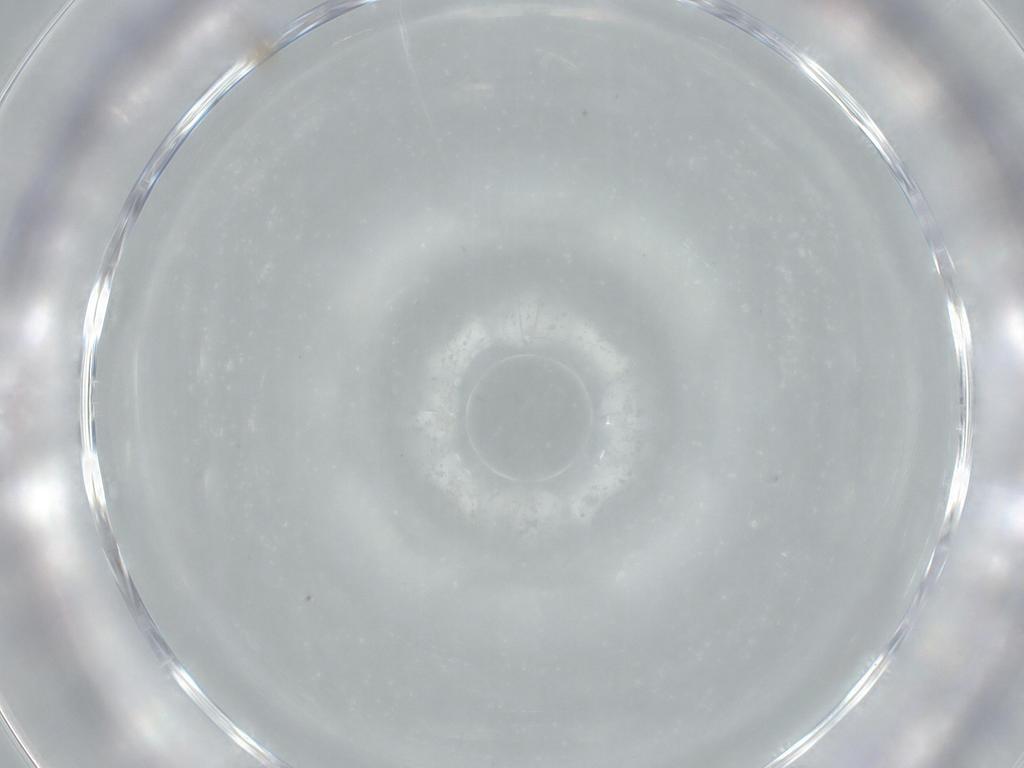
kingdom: Animalia
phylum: Arthropoda
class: Insecta
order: Diptera
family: Chironomidae
